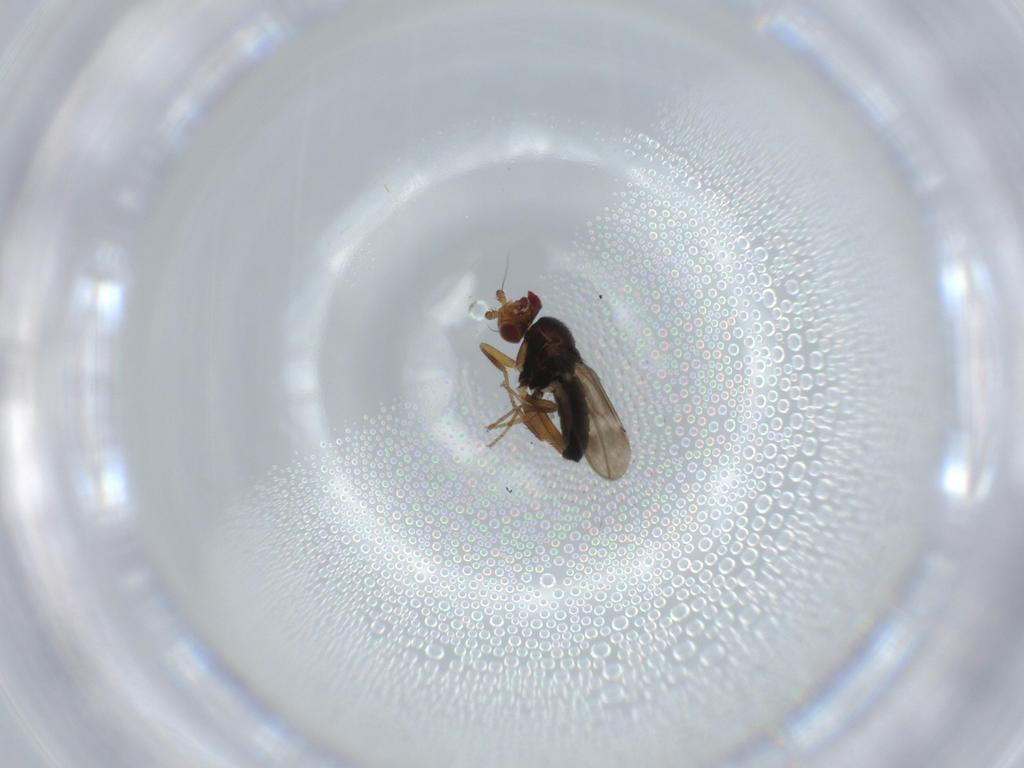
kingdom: Animalia
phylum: Arthropoda
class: Insecta
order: Diptera
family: Sphaeroceridae
